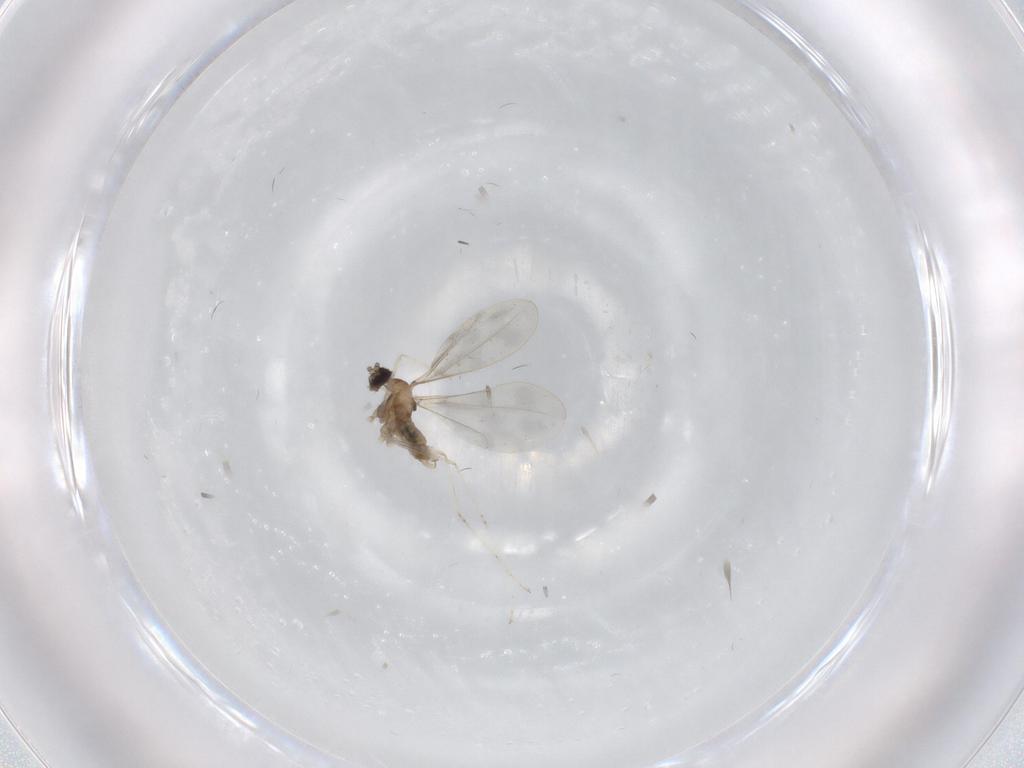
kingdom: Animalia
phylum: Arthropoda
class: Insecta
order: Diptera
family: Cecidomyiidae
